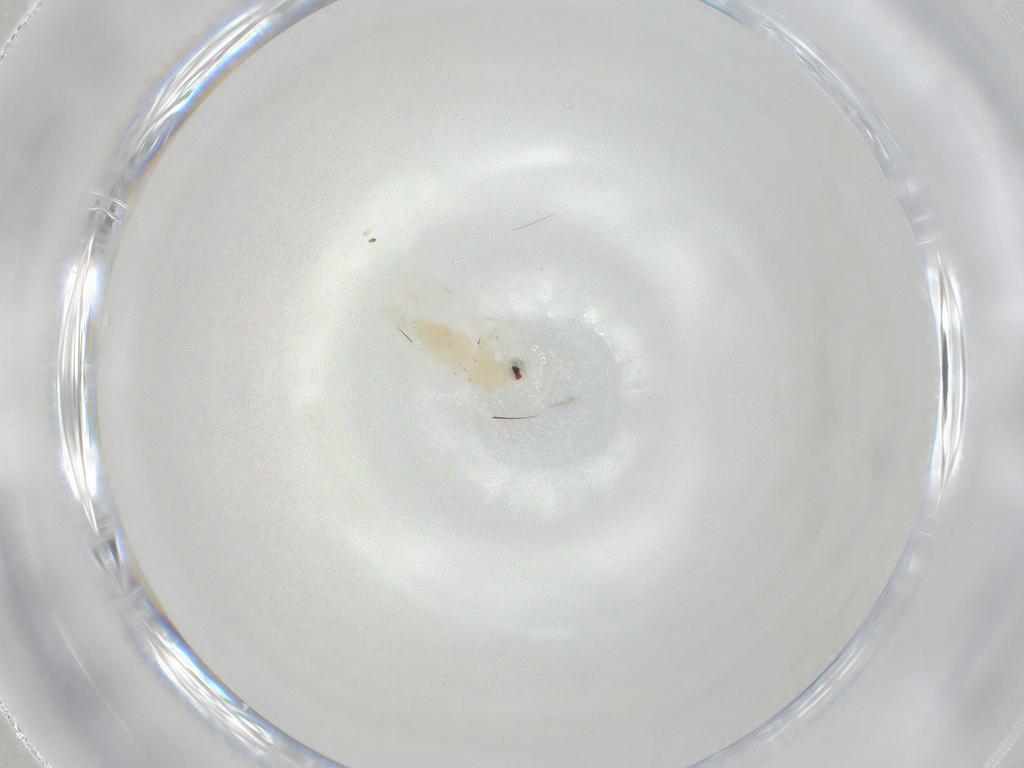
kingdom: Animalia
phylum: Arthropoda
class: Insecta
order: Hemiptera
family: Aleyrodidae
